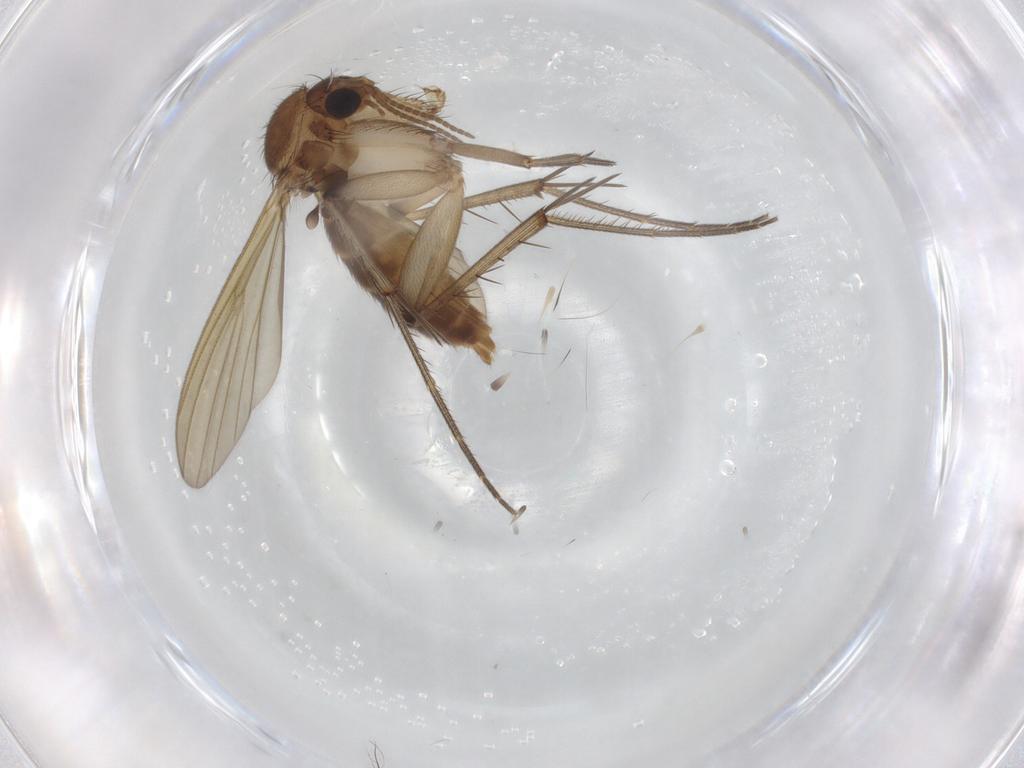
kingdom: Animalia
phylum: Arthropoda
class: Insecta
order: Diptera
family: Mycetophilidae
